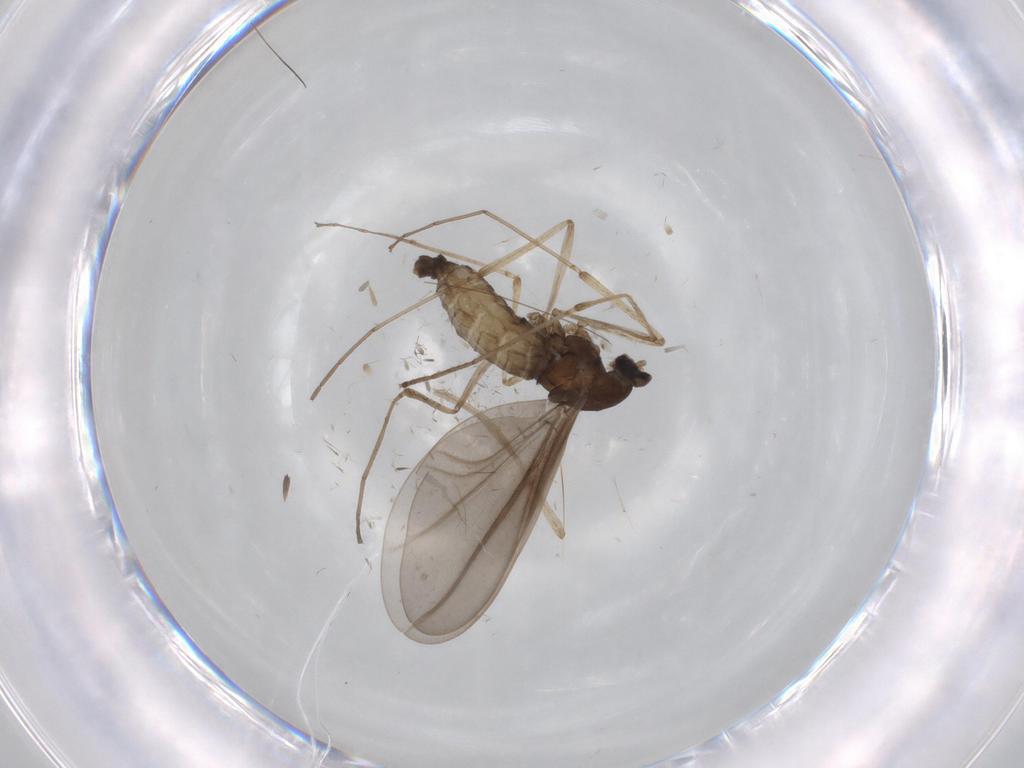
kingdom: Animalia
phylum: Arthropoda
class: Insecta
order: Diptera
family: Cecidomyiidae
